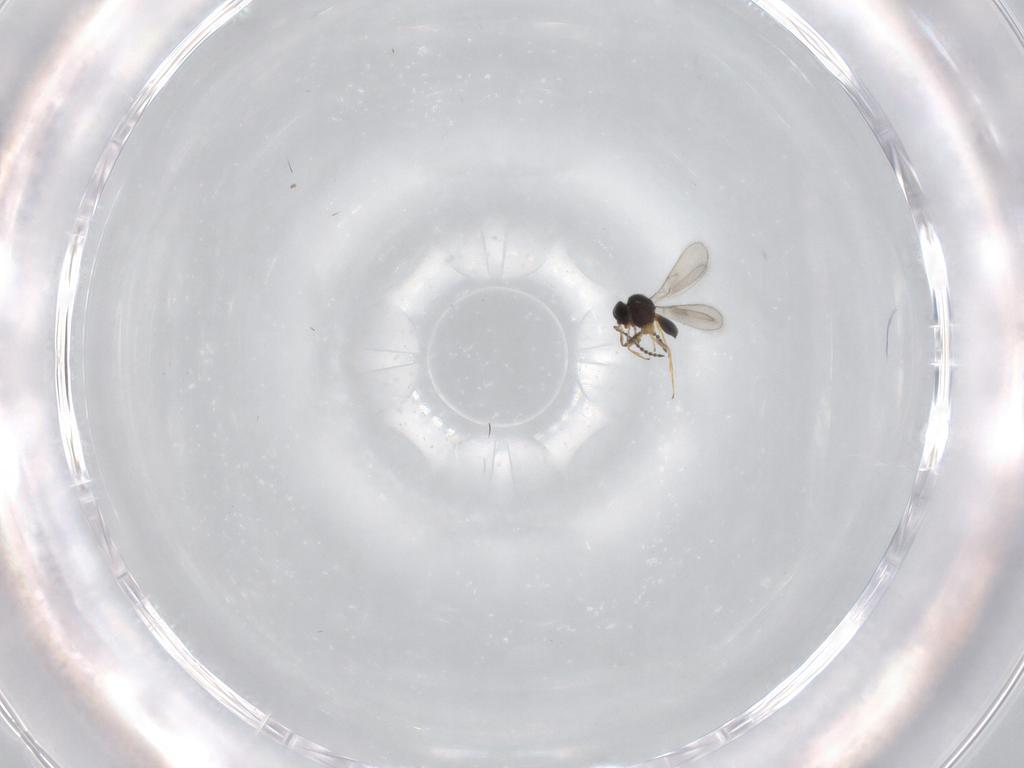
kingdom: Animalia
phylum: Arthropoda
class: Insecta
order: Hymenoptera
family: Scelionidae
